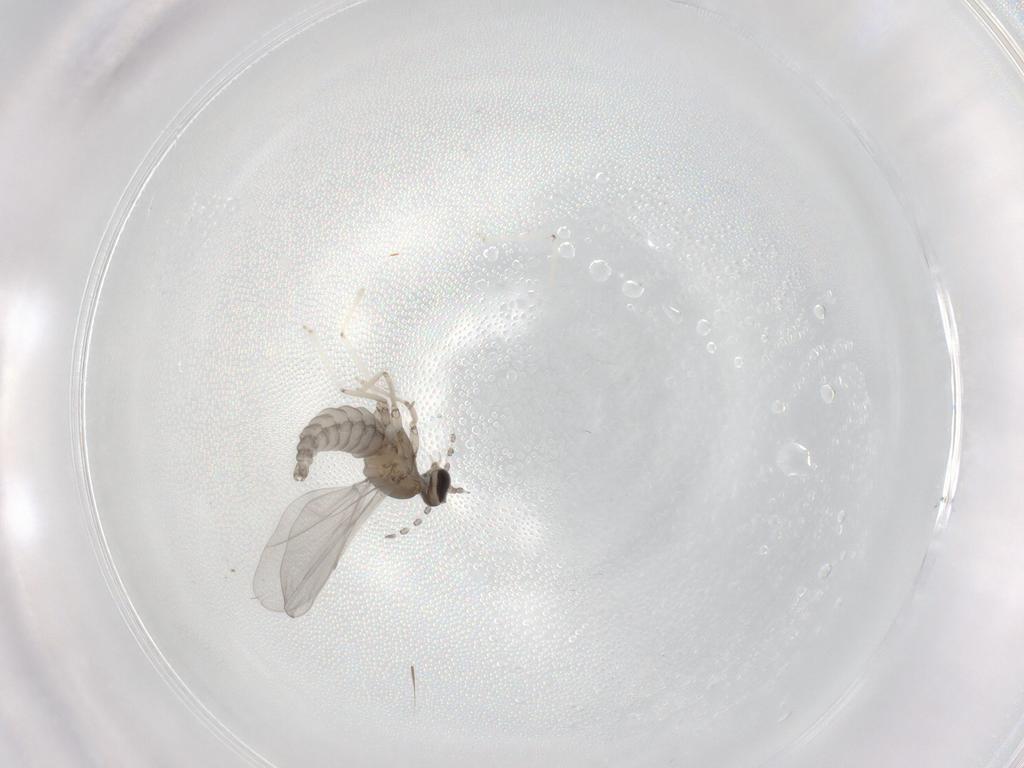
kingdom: Animalia
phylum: Arthropoda
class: Insecta
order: Diptera
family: Cecidomyiidae
